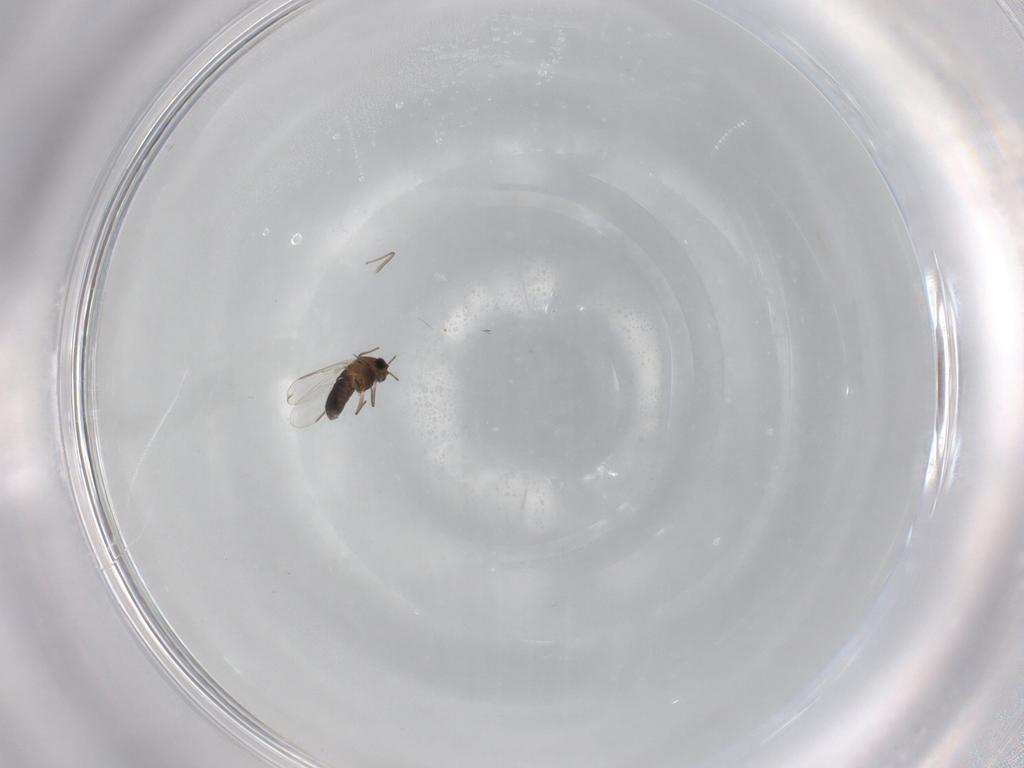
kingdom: Animalia
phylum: Arthropoda
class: Insecta
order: Diptera
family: Chironomidae
